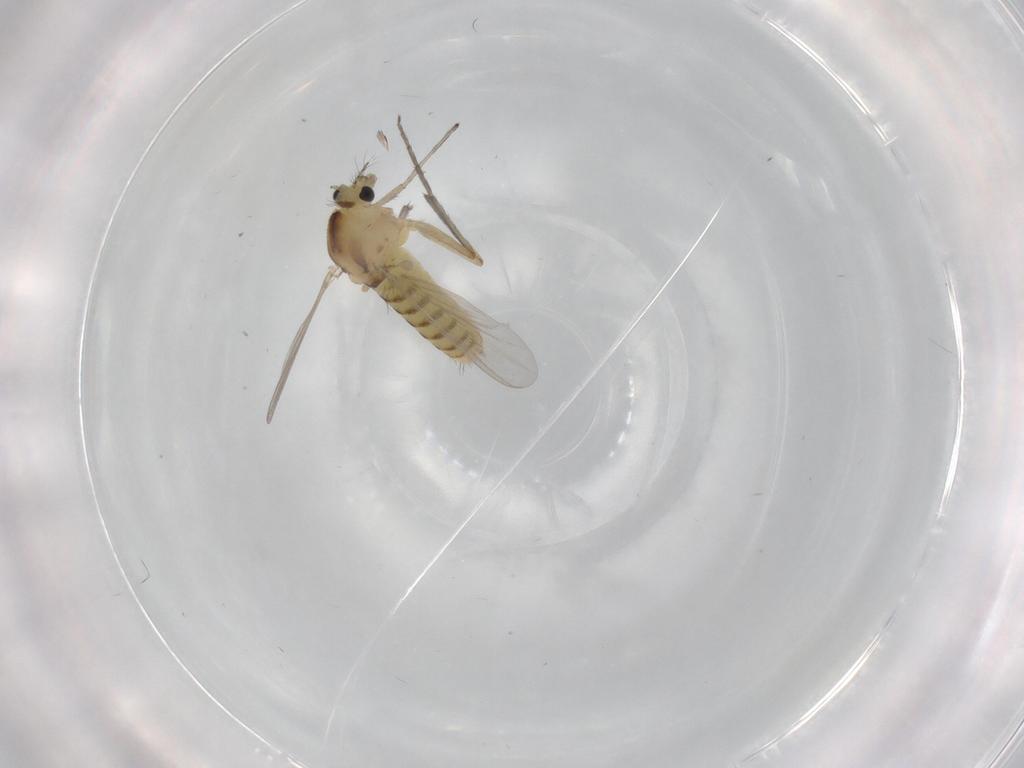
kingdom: Animalia
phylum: Arthropoda
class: Insecta
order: Diptera
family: Chironomidae
